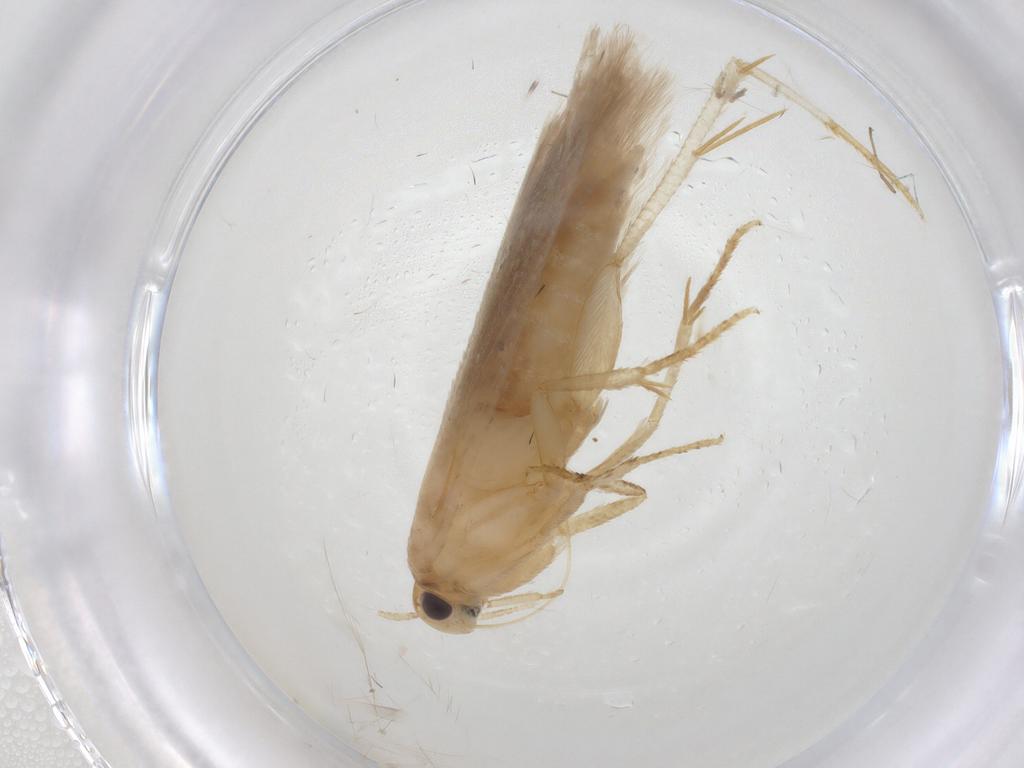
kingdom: Animalia
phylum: Arthropoda
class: Insecta
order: Lepidoptera
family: Gelechiidae
